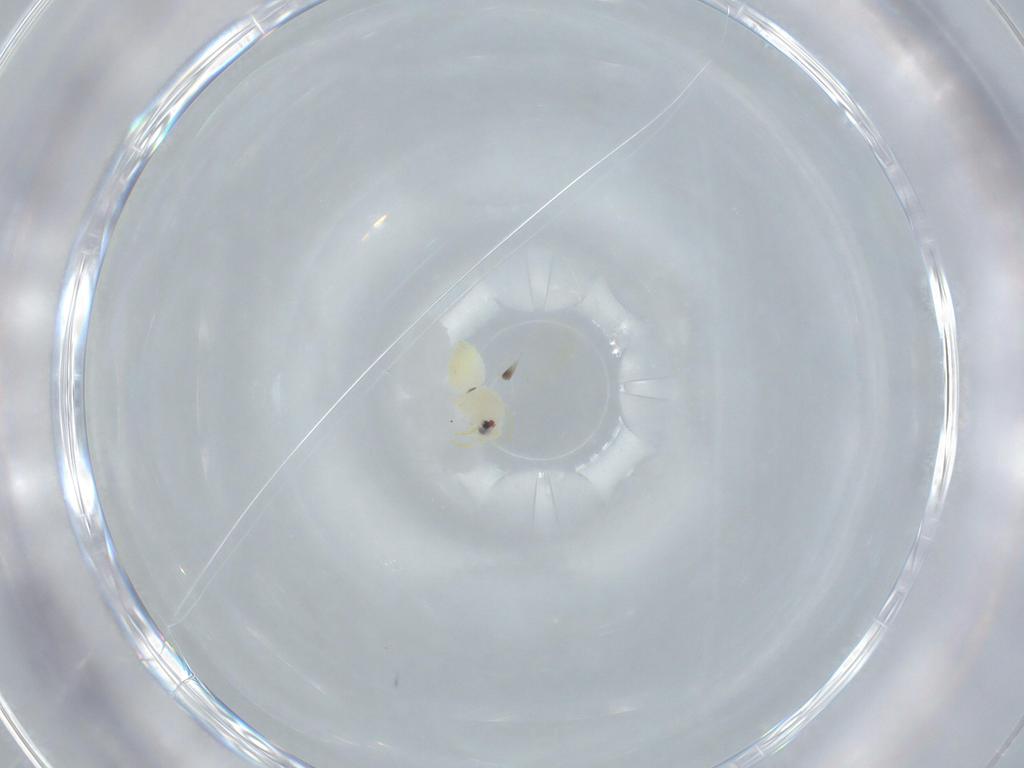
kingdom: Animalia
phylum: Arthropoda
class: Insecta
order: Hemiptera
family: Aleyrodidae
